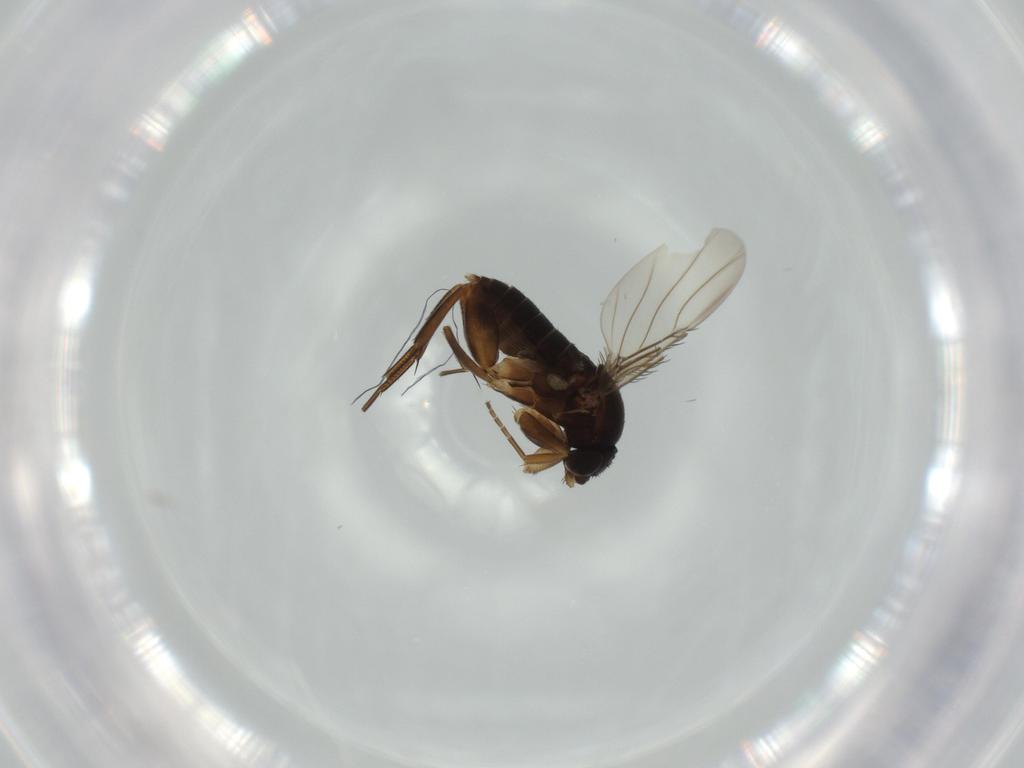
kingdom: Animalia
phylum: Arthropoda
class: Insecta
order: Diptera
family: Phoridae
